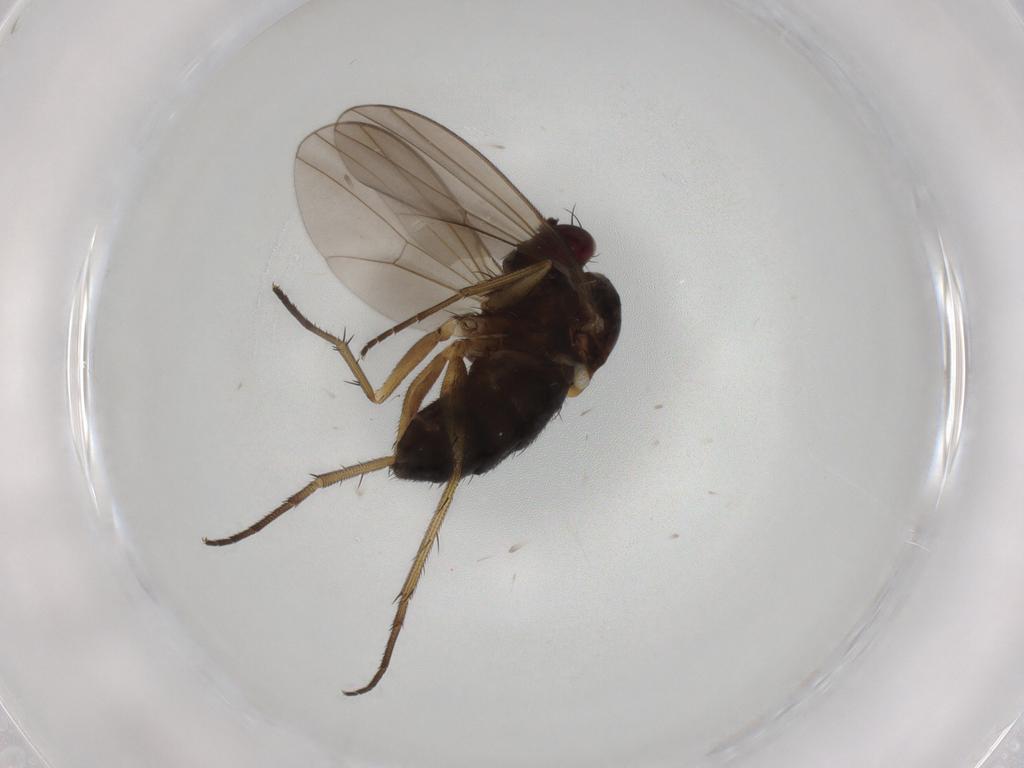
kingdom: Animalia
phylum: Arthropoda
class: Insecta
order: Diptera
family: Dolichopodidae
